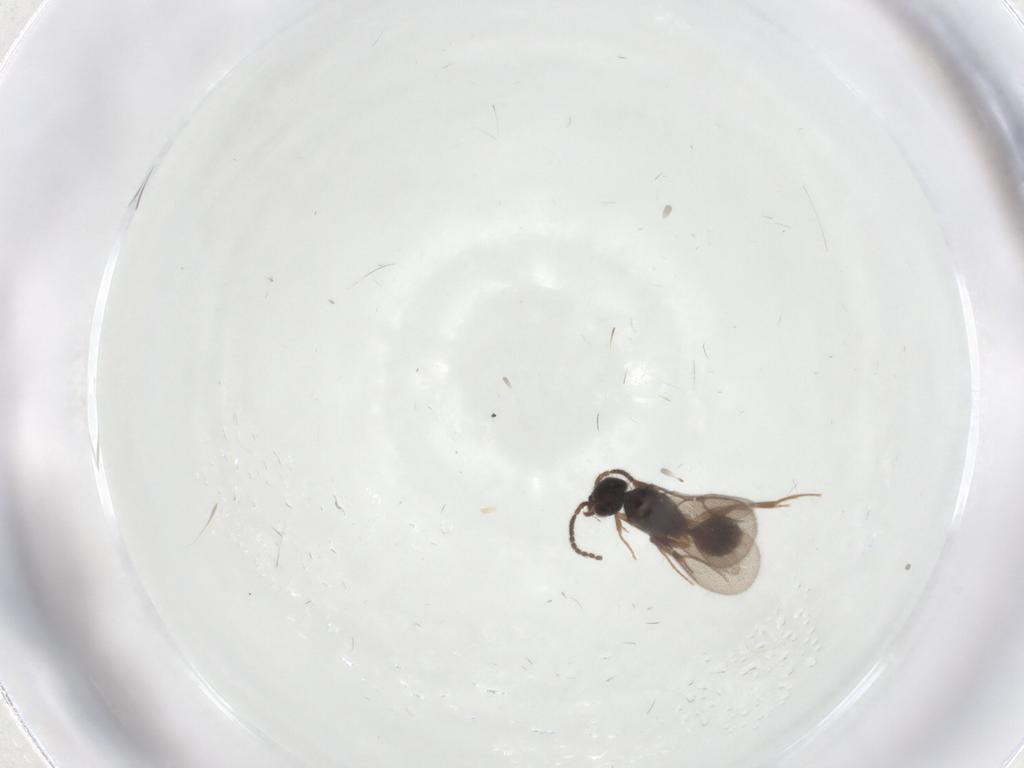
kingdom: Animalia
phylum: Arthropoda
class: Insecta
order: Hymenoptera
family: Bethylidae
